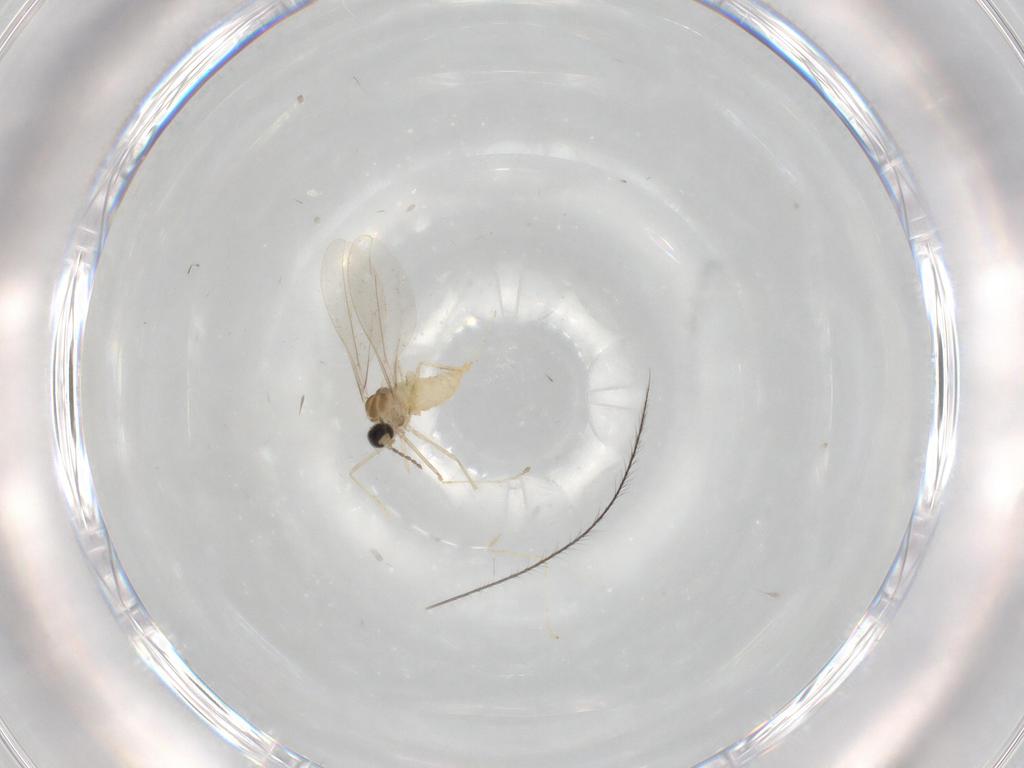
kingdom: Animalia
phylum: Arthropoda
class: Insecta
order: Diptera
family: Cecidomyiidae
